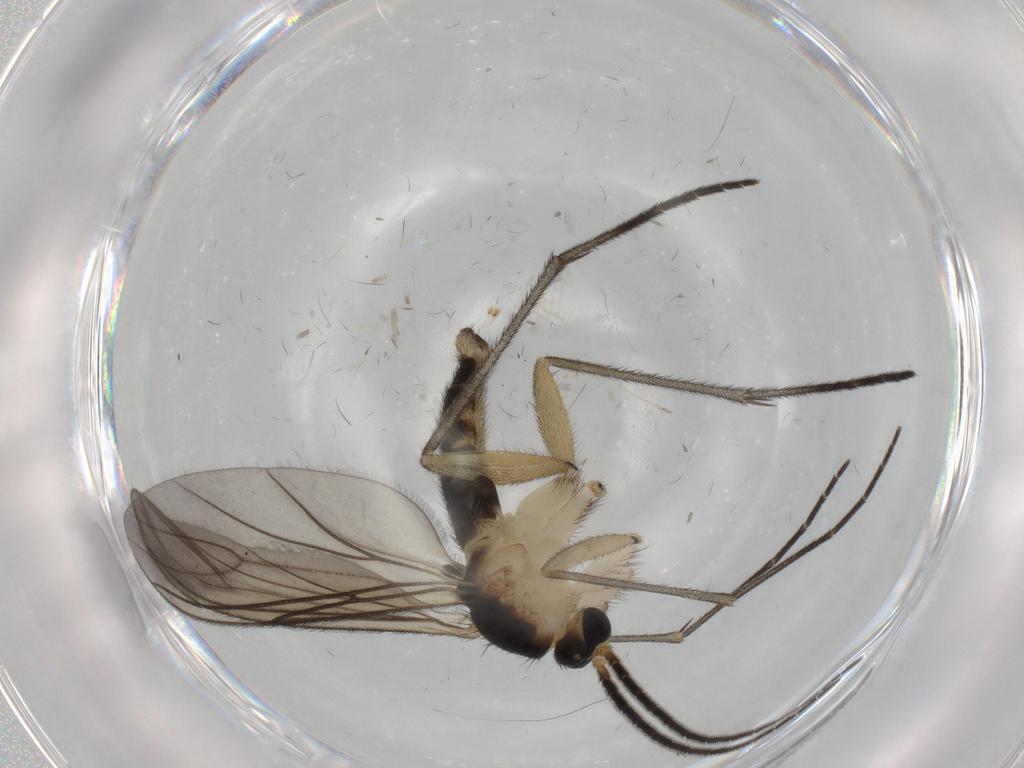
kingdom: Animalia
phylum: Arthropoda
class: Insecta
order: Diptera
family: Sciaridae
